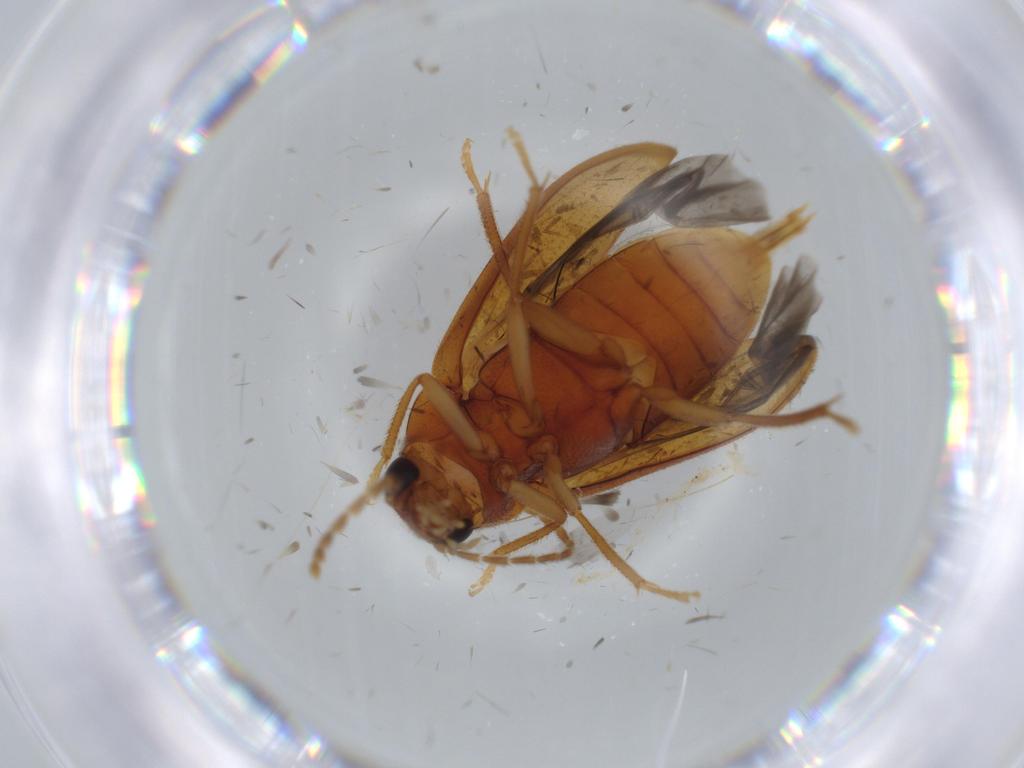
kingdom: Animalia
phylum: Arthropoda
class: Insecta
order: Coleoptera
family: Ptilodactylidae
